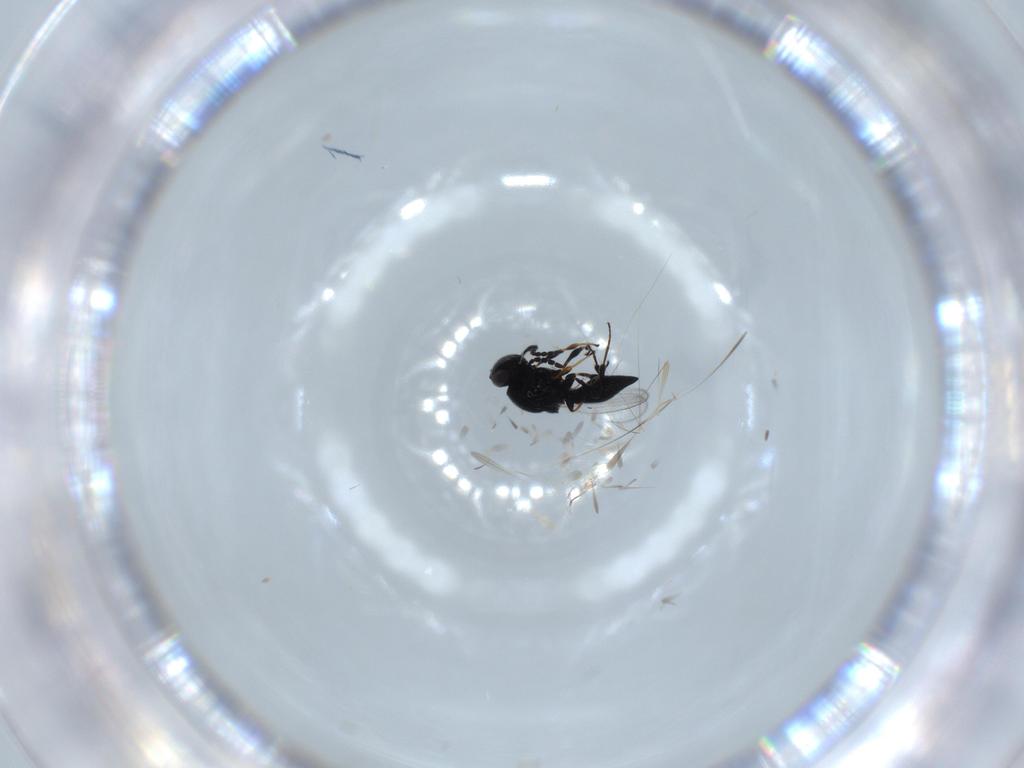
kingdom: Animalia
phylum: Arthropoda
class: Insecta
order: Hymenoptera
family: Platygastridae
